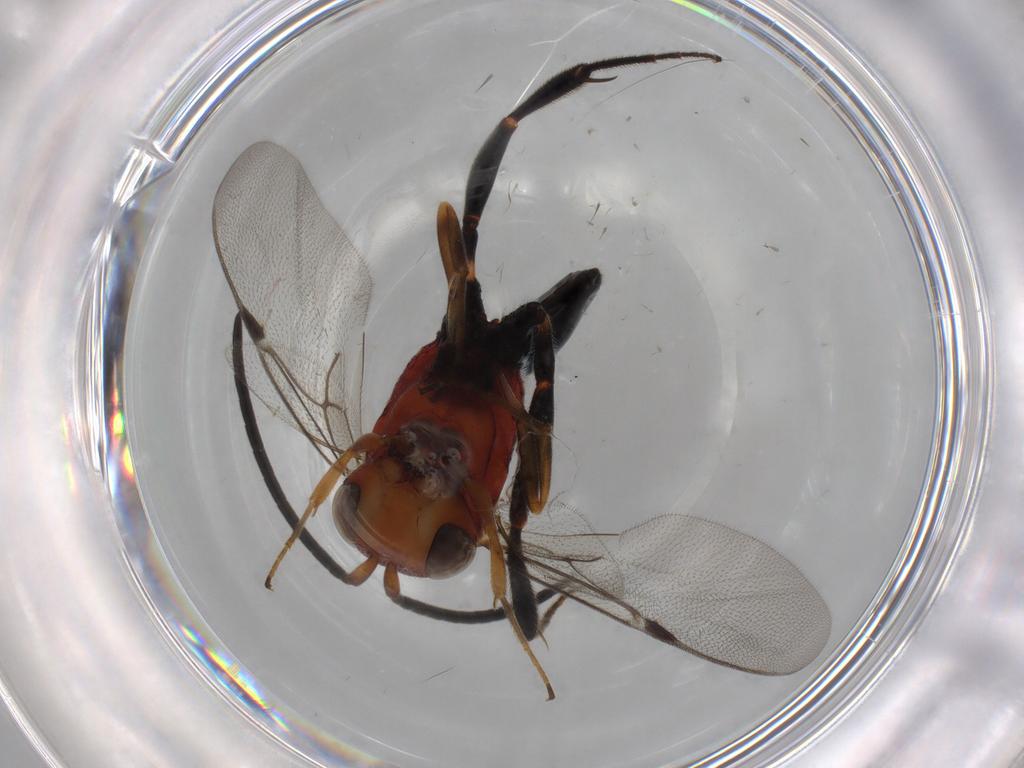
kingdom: Animalia
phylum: Arthropoda
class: Insecta
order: Hymenoptera
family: Evaniidae
